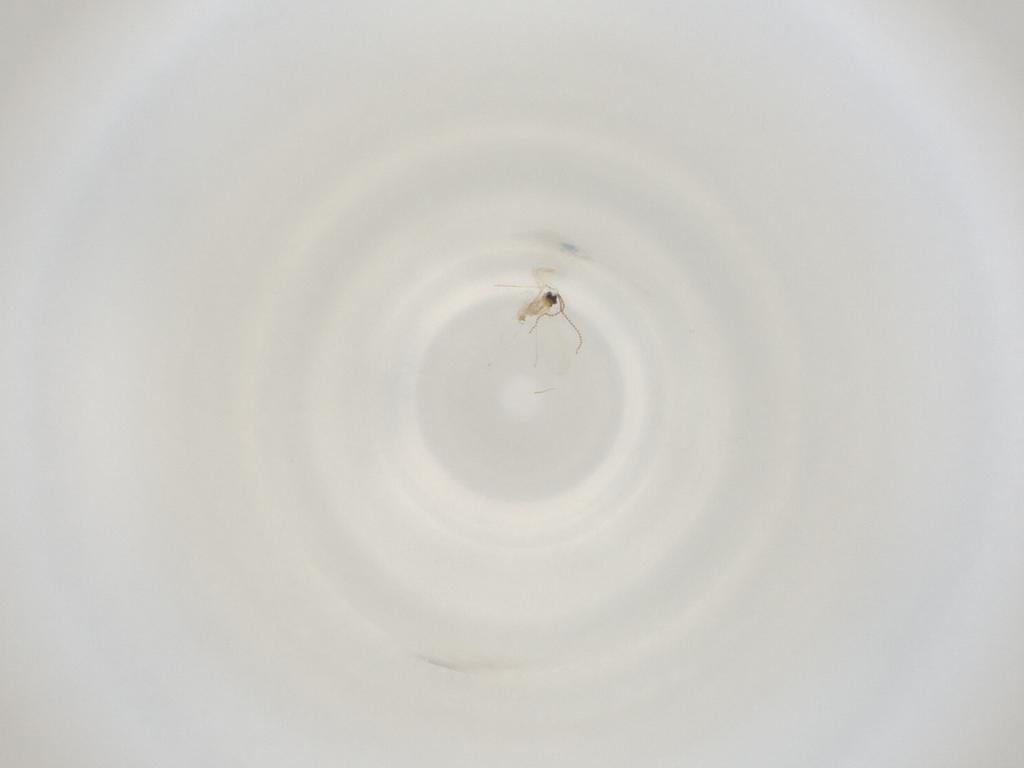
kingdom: Animalia
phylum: Arthropoda
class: Insecta
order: Diptera
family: Cecidomyiidae
